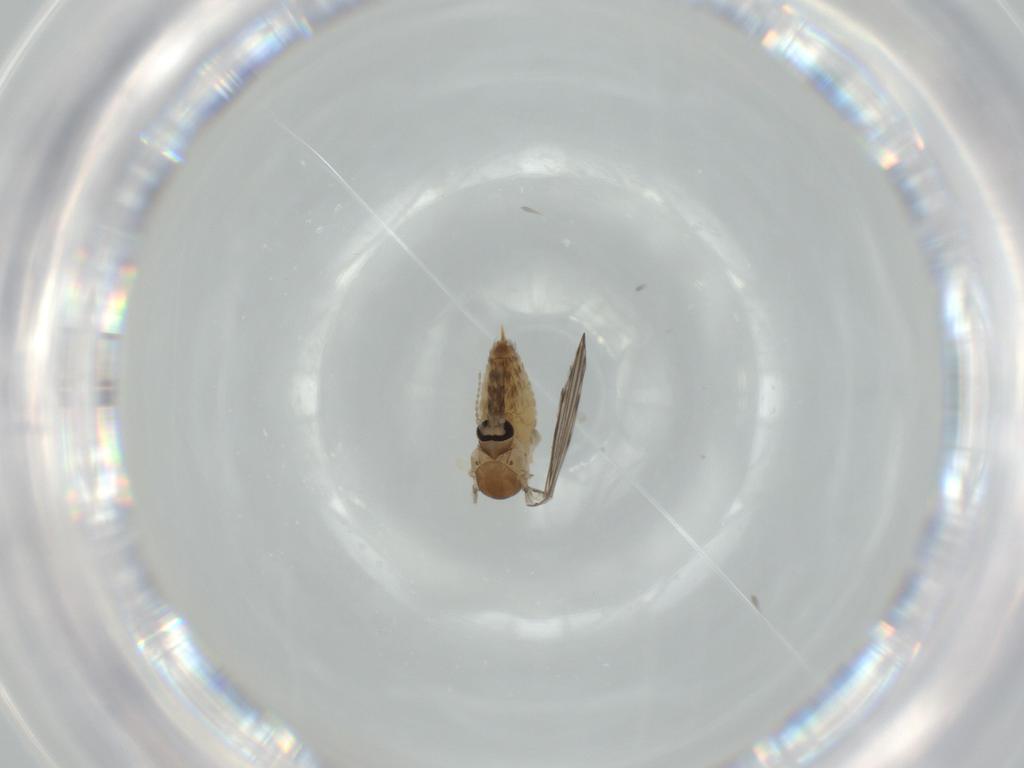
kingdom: Animalia
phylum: Arthropoda
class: Insecta
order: Diptera
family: Psychodidae
